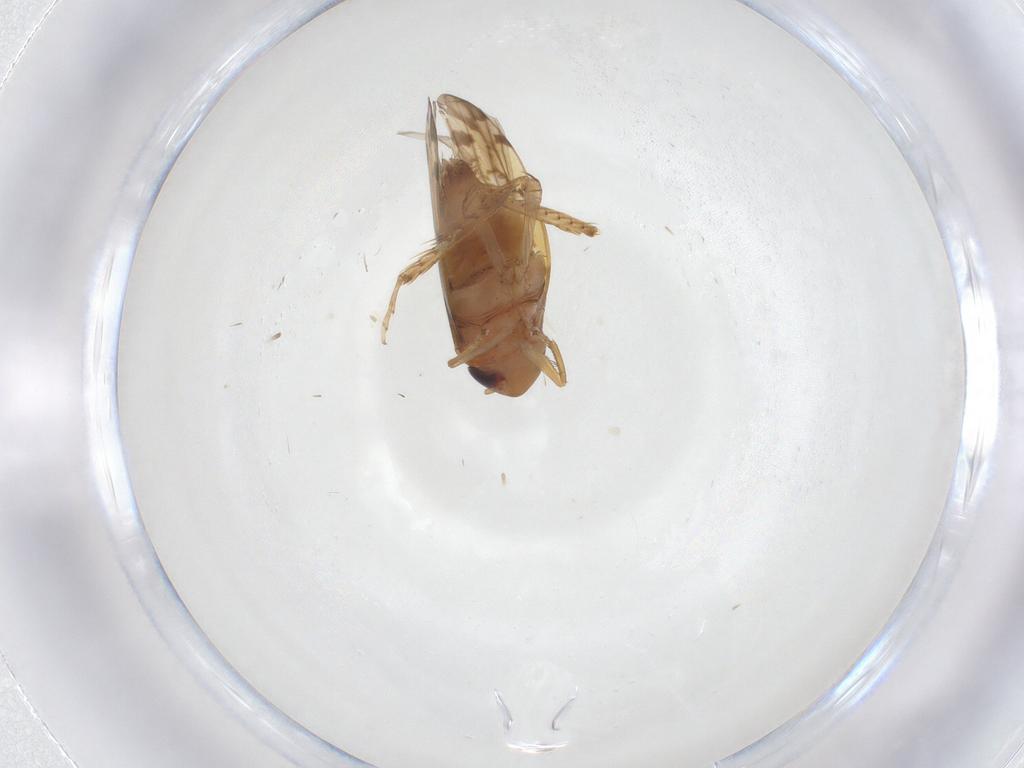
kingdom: Animalia
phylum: Arthropoda
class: Insecta
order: Hemiptera
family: Cicadellidae
